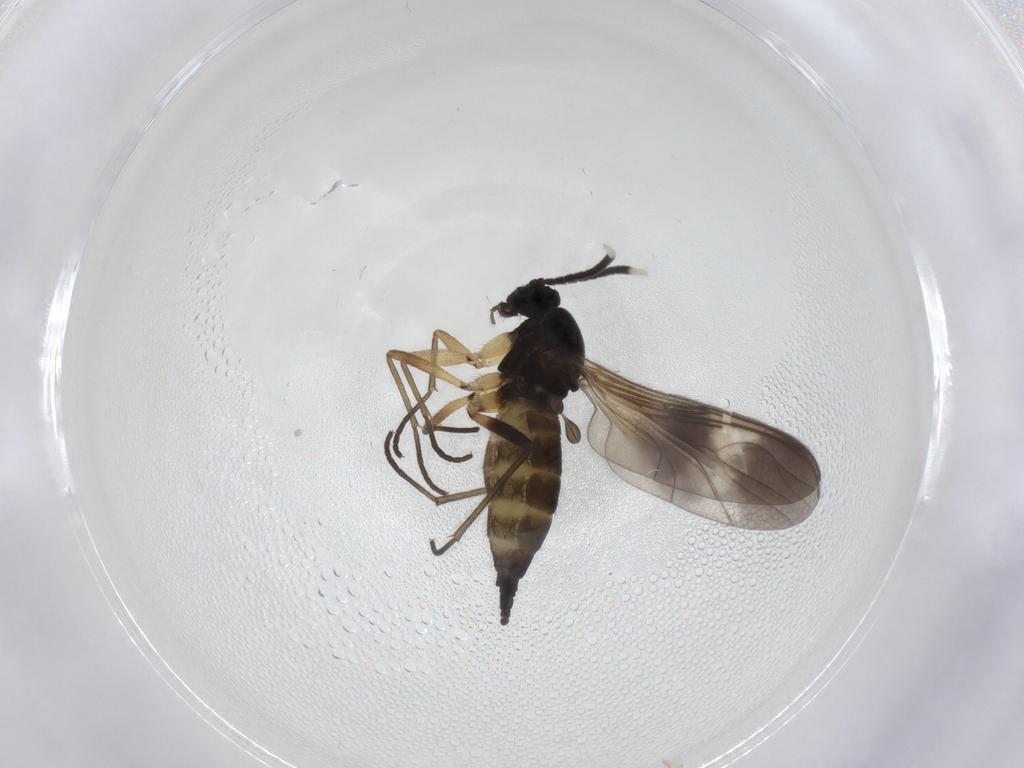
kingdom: Animalia
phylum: Arthropoda
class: Insecta
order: Diptera
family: Sciaridae
